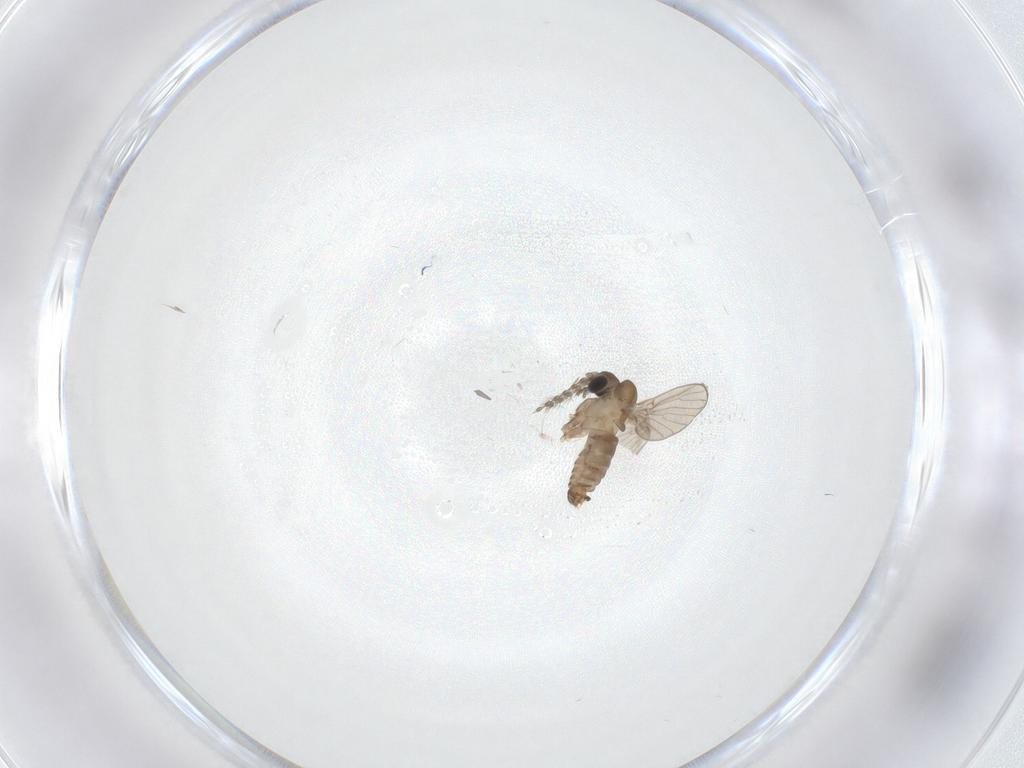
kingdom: Animalia
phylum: Arthropoda
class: Insecta
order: Diptera
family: Psychodidae
